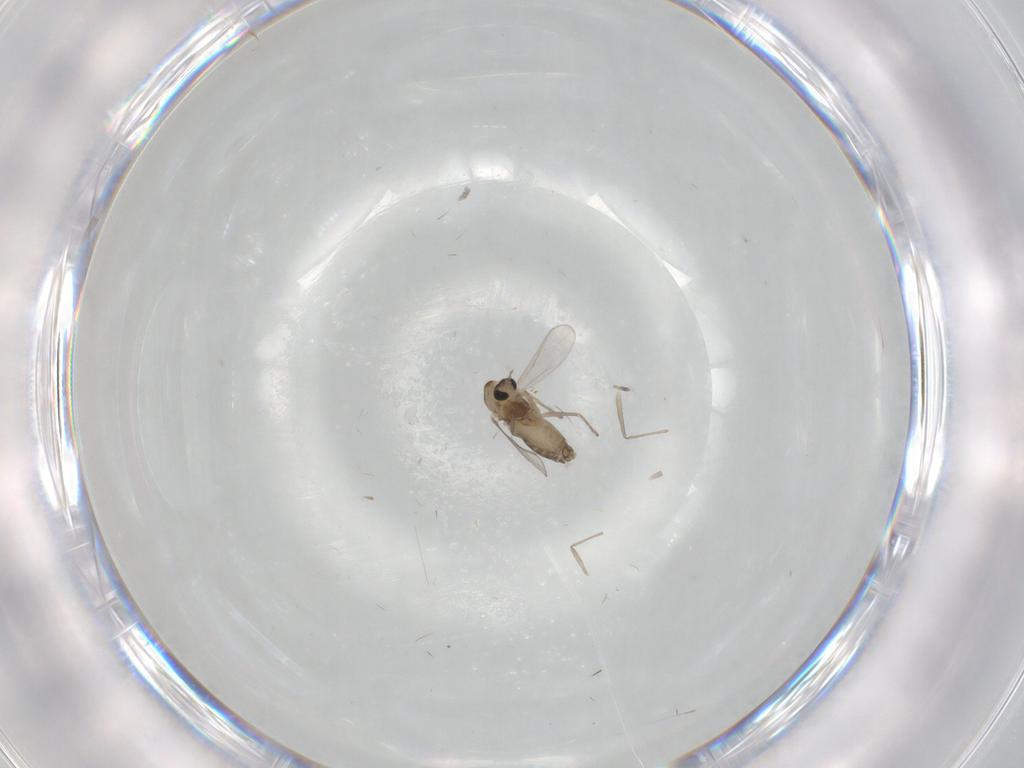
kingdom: Animalia
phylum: Arthropoda
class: Insecta
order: Diptera
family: Chironomidae
